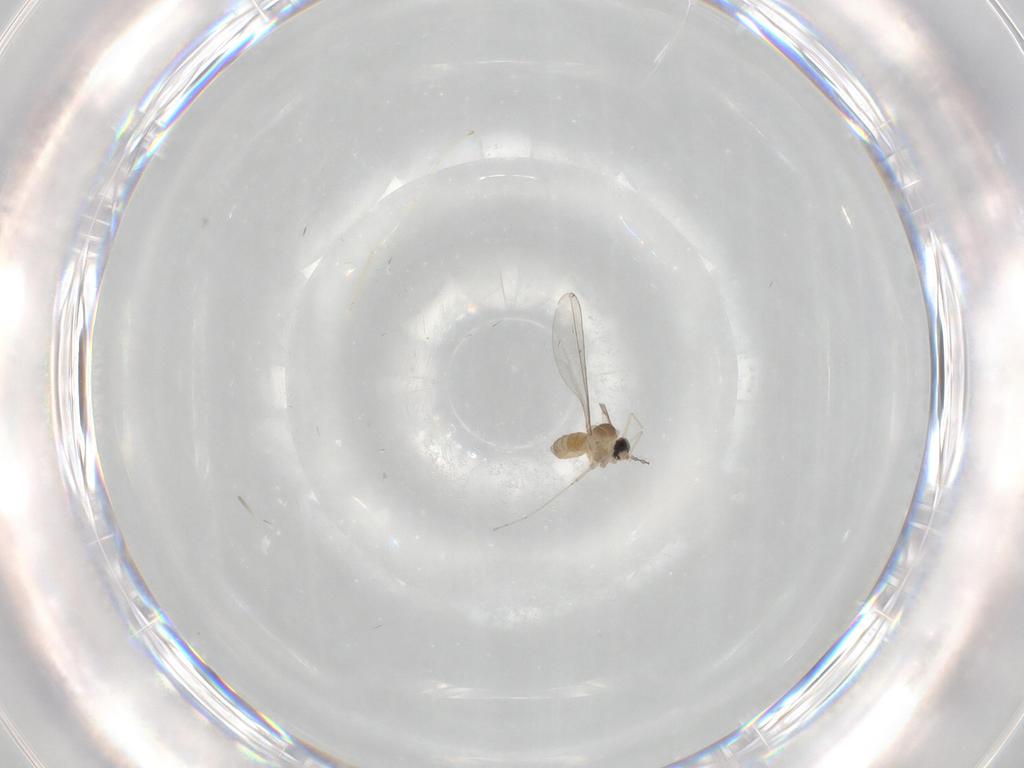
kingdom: Animalia
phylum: Arthropoda
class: Insecta
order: Diptera
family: Cecidomyiidae
